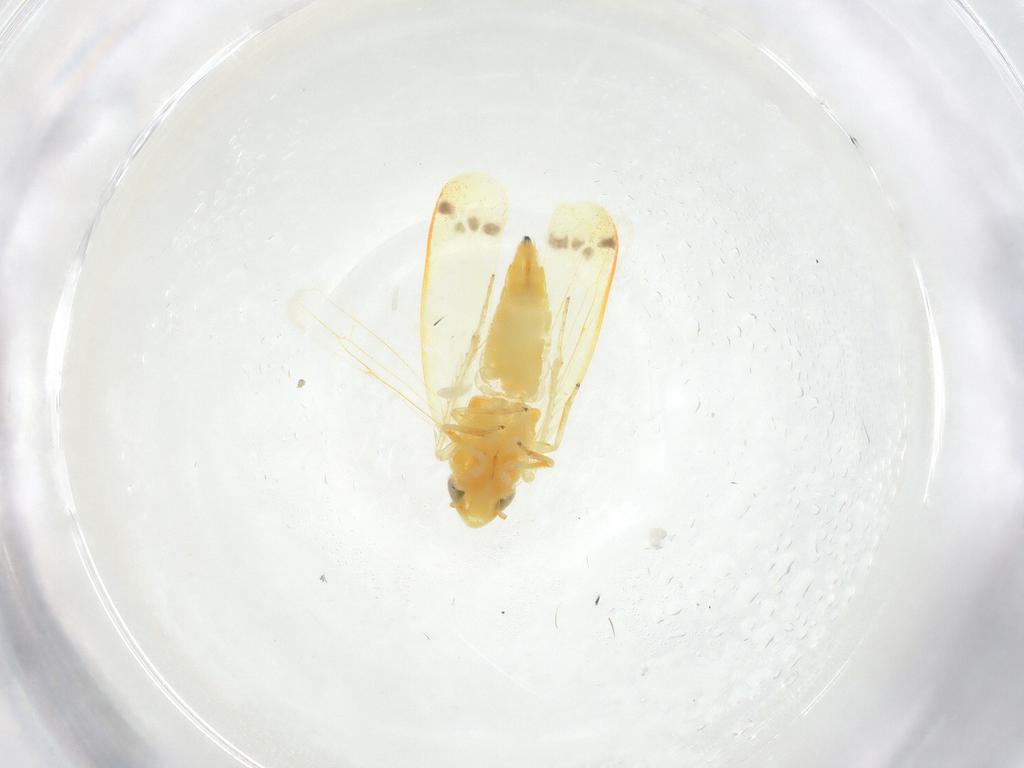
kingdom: Animalia
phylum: Arthropoda
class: Insecta
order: Hemiptera
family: Cicadellidae
